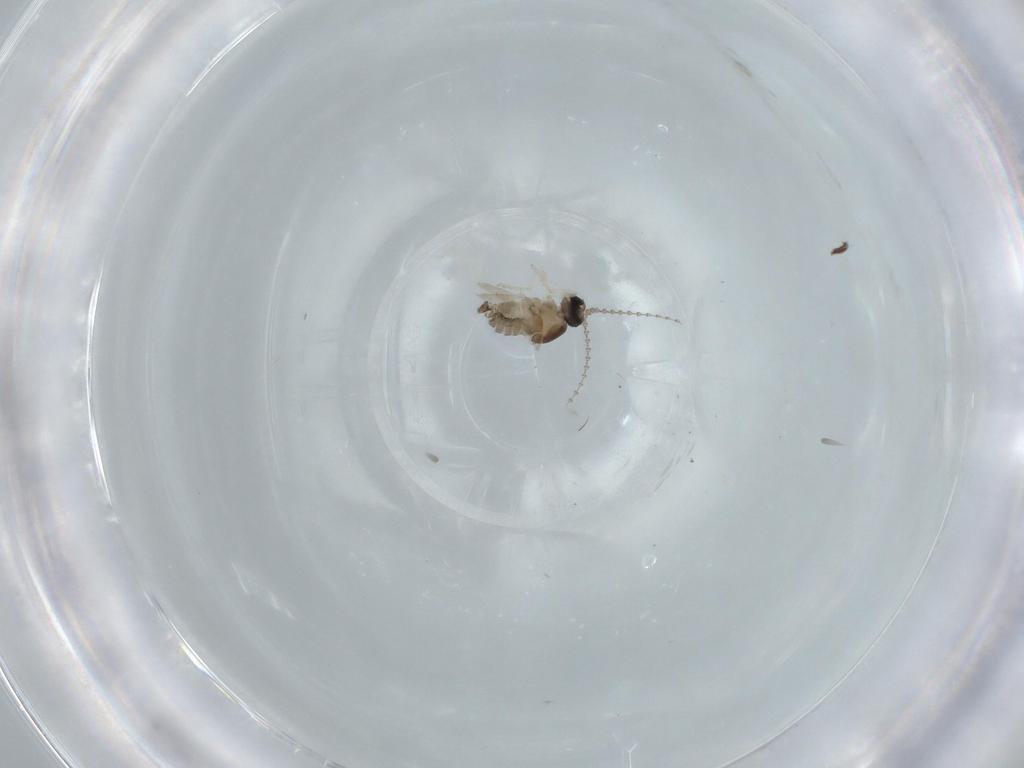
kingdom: Animalia
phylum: Arthropoda
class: Insecta
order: Diptera
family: Cecidomyiidae
